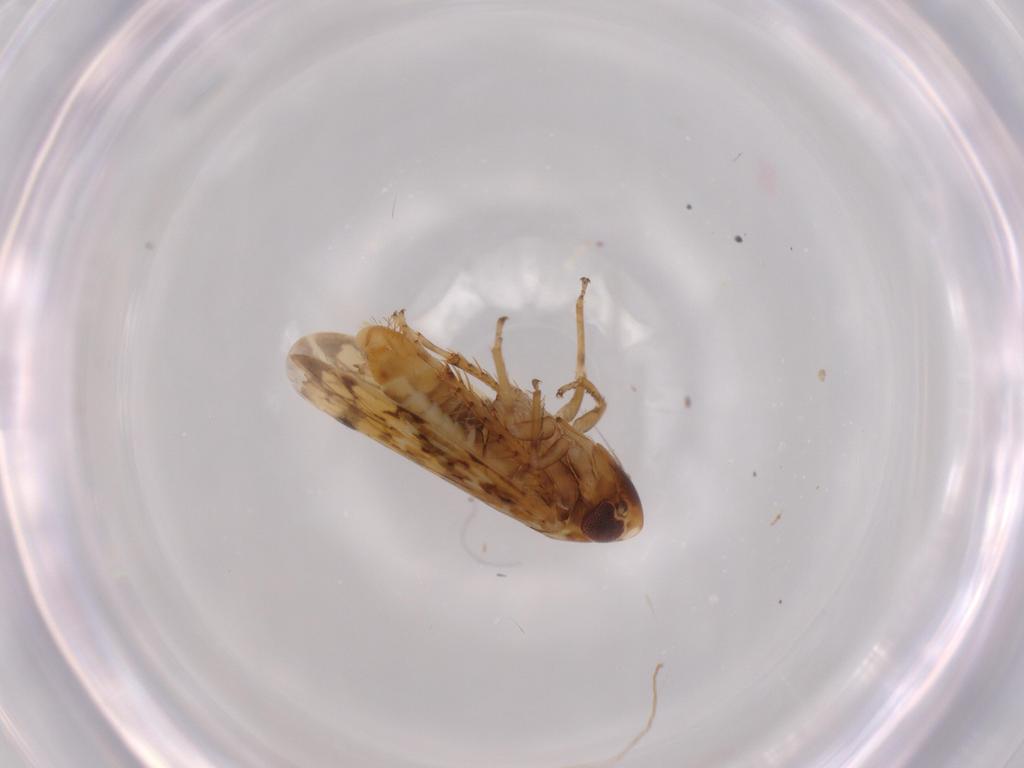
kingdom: Animalia
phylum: Arthropoda
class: Insecta
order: Hemiptera
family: Cicadellidae
